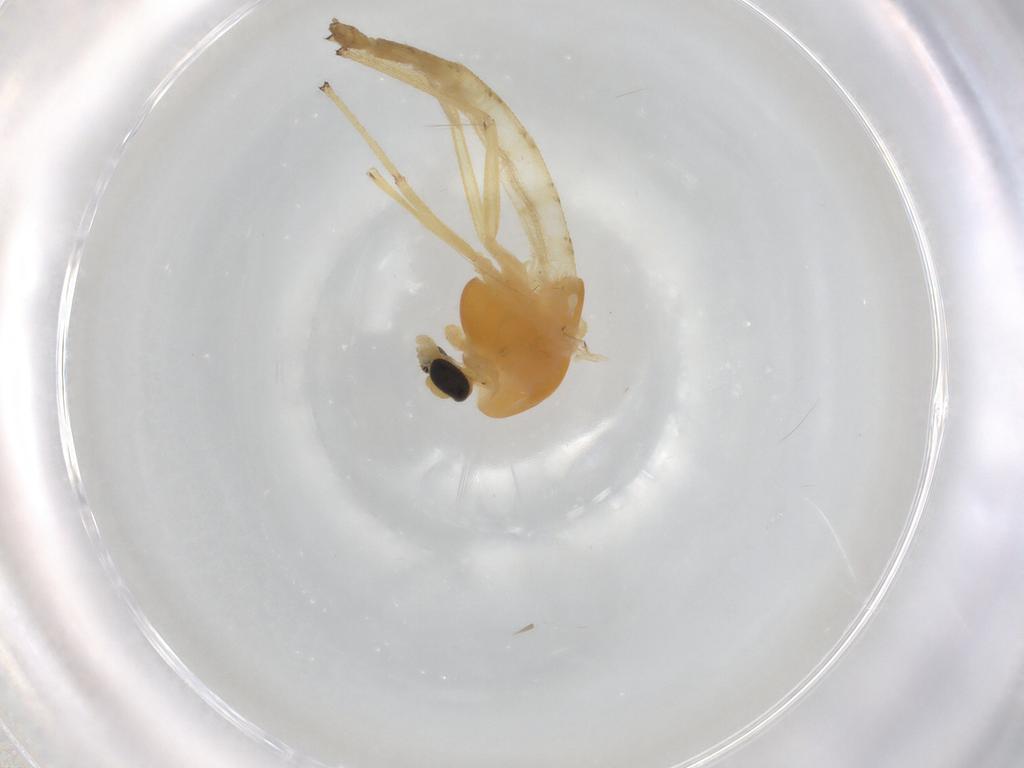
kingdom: Animalia
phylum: Arthropoda
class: Insecta
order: Diptera
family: Chironomidae
